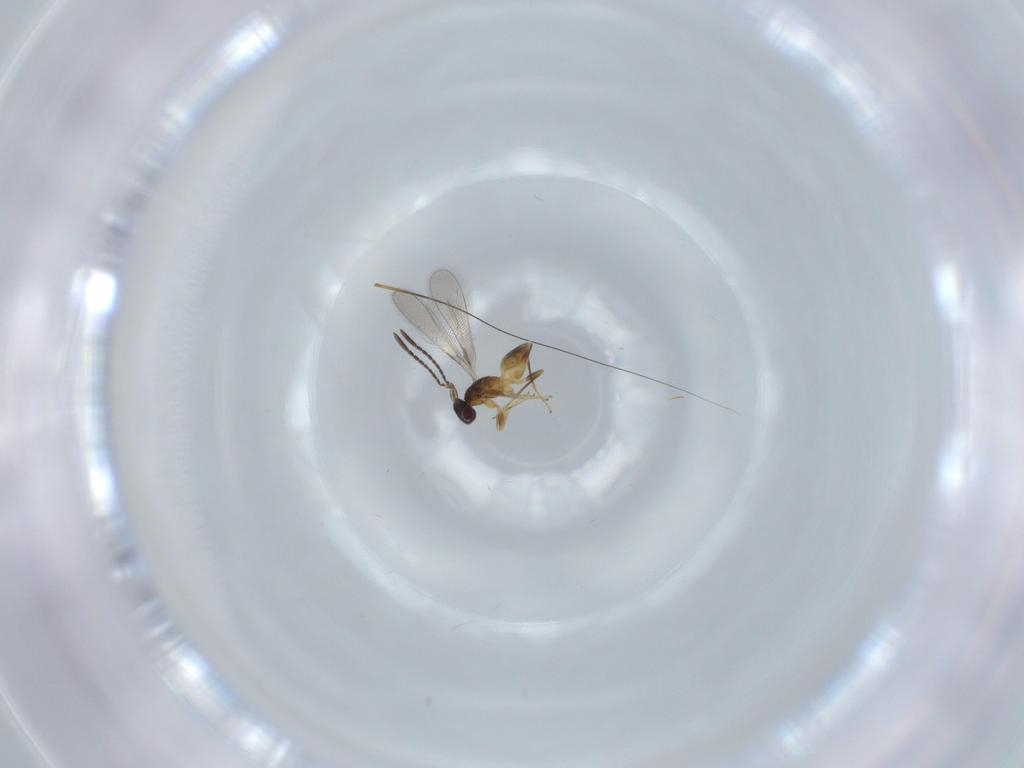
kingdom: Animalia
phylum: Arthropoda
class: Insecta
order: Hymenoptera
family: Mymaridae
